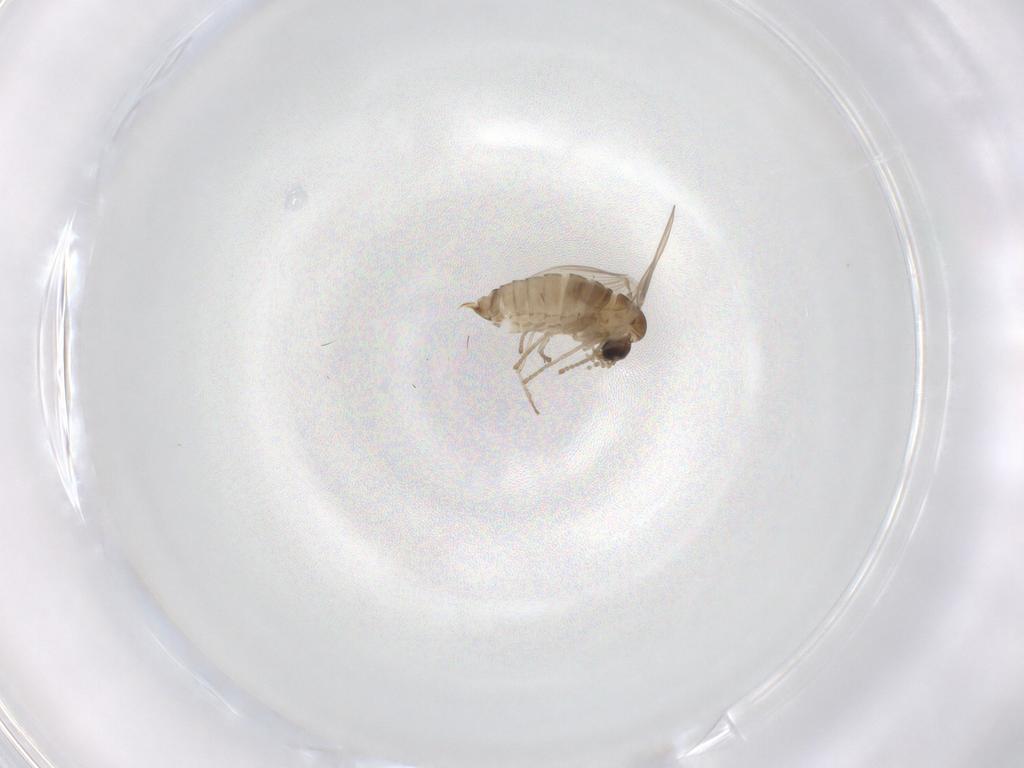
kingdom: Animalia
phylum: Arthropoda
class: Insecta
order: Diptera
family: Psychodidae
